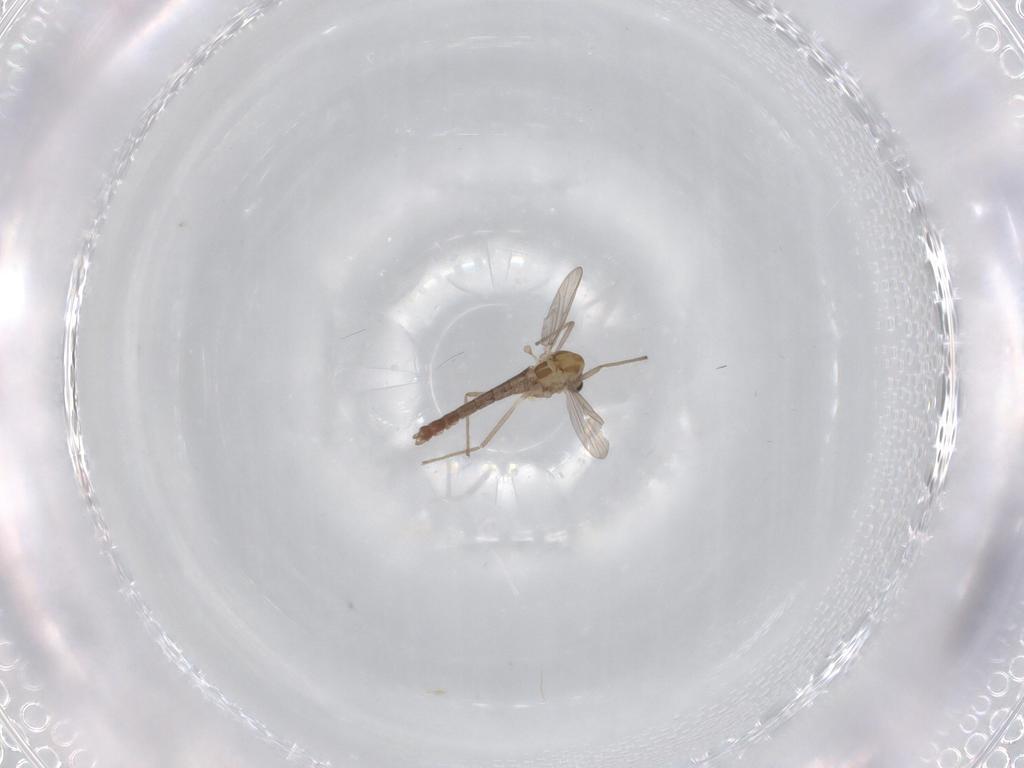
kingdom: Animalia
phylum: Arthropoda
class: Insecta
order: Diptera
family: Chironomidae
